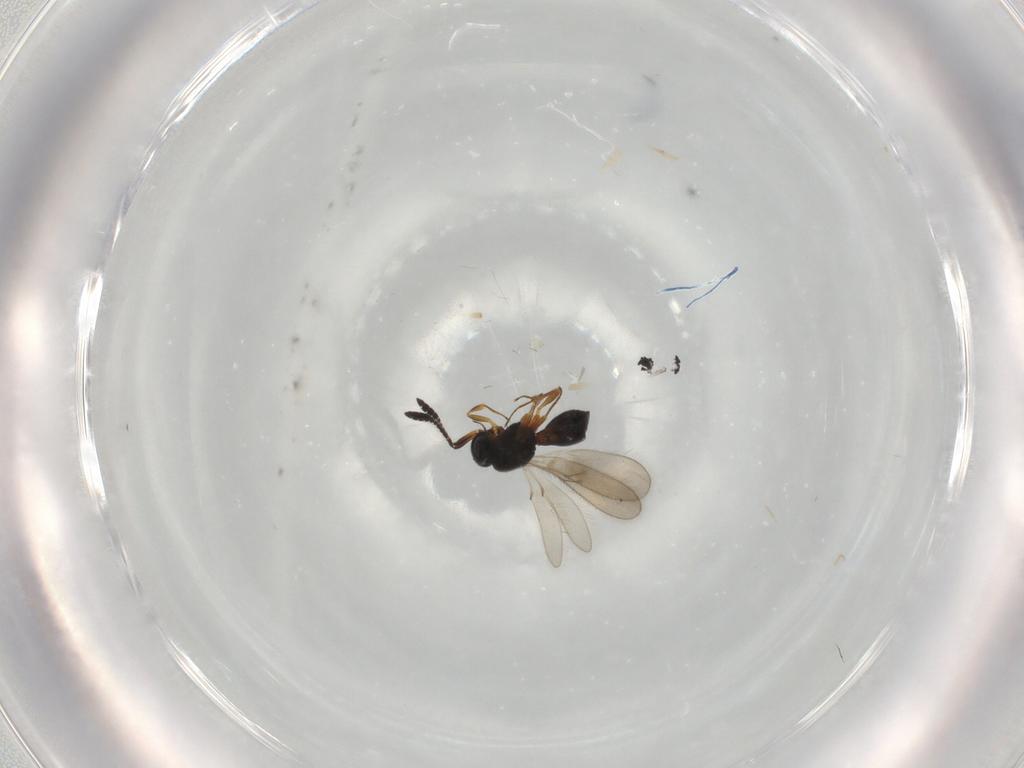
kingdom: Animalia
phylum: Arthropoda
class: Insecta
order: Hymenoptera
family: Scelionidae
